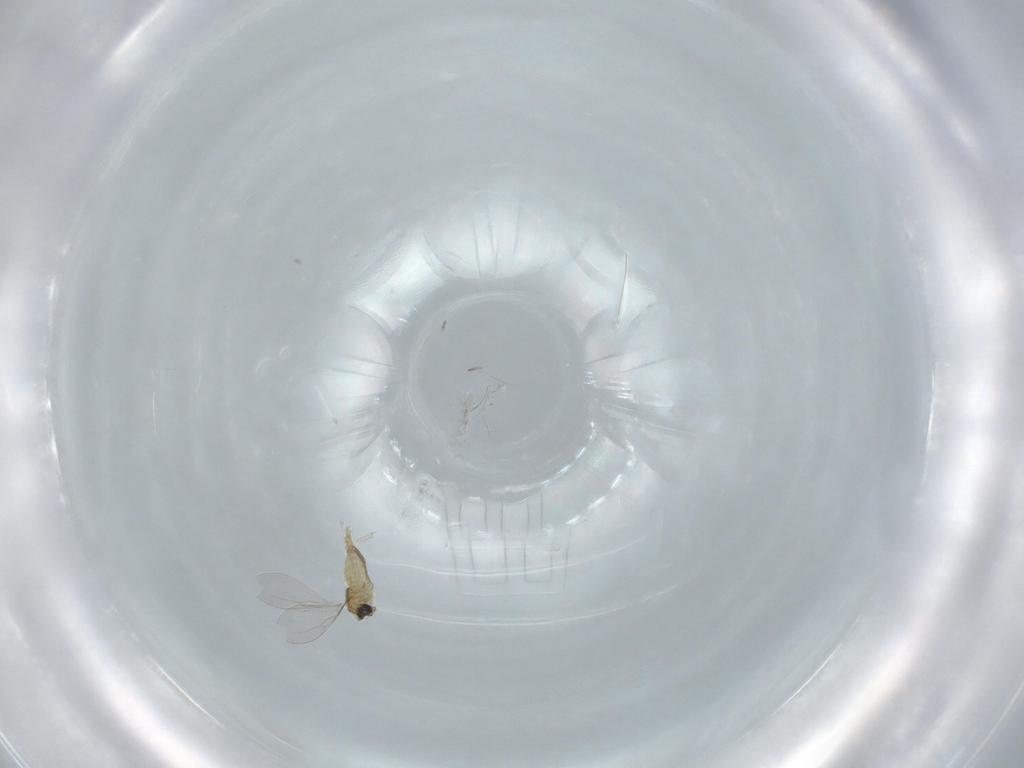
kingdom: Animalia
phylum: Arthropoda
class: Insecta
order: Diptera
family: Cecidomyiidae
